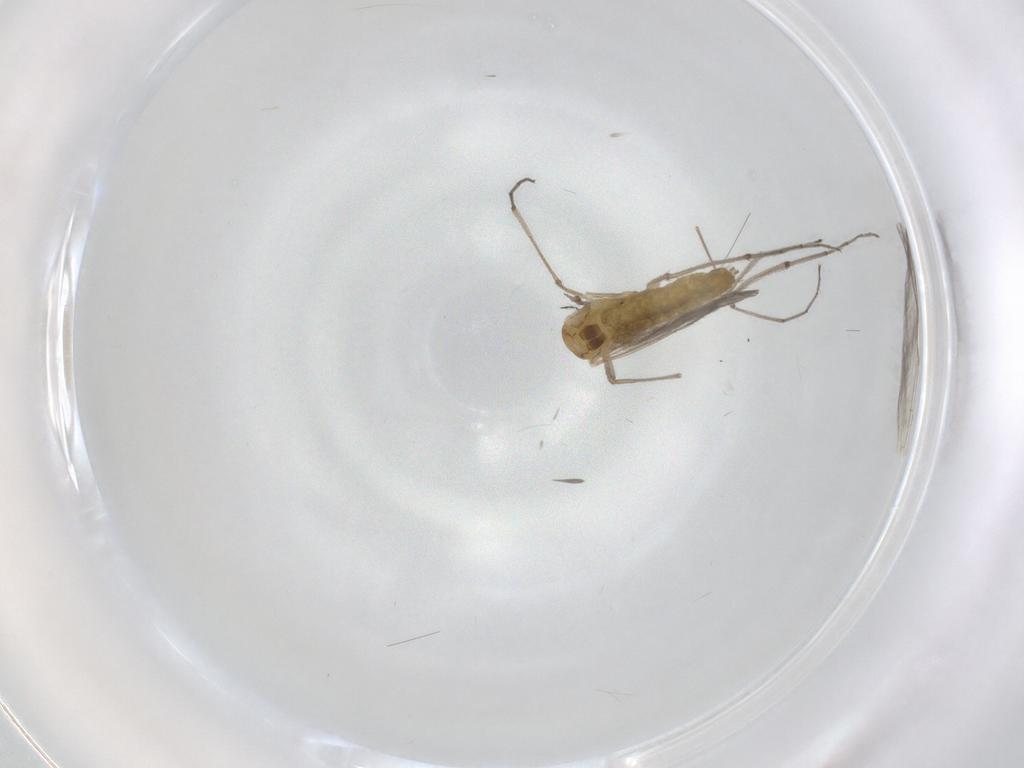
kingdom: Animalia
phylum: Arthropoda
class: Insecta
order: Diptera
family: Chironomidae
